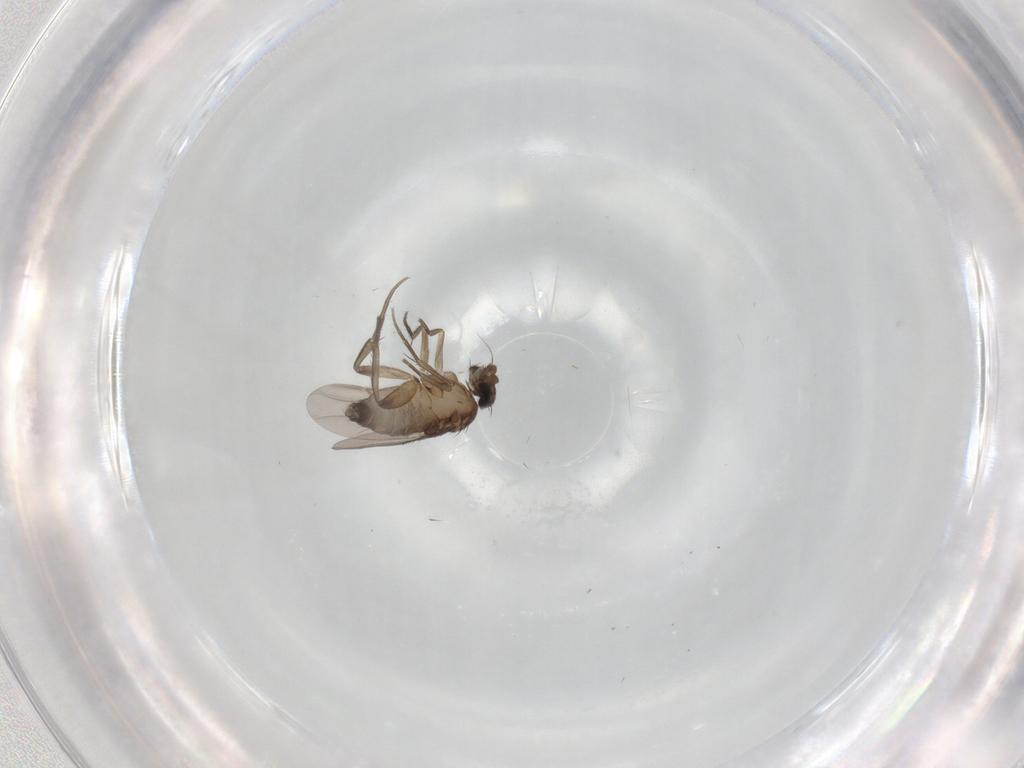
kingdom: Animalia
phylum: Arthropoda
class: Insecta
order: Diptera
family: Phoridae
